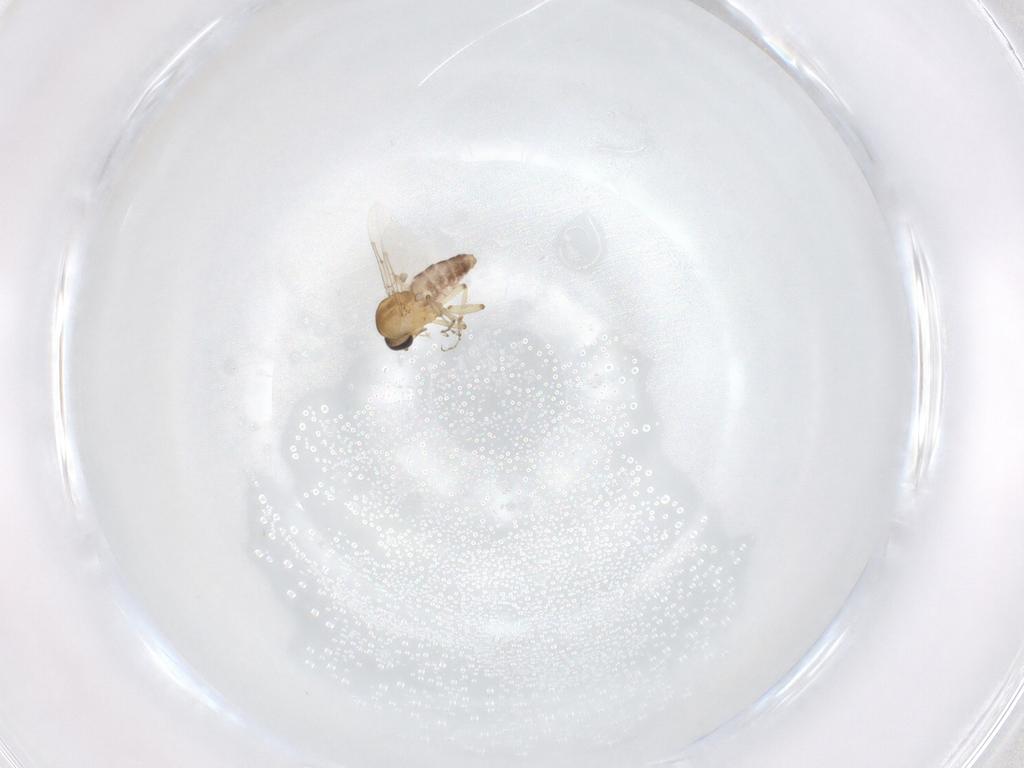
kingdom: Animalia
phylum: Arthropoda
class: Insecta
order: Diptera
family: Ceratopogonidae
